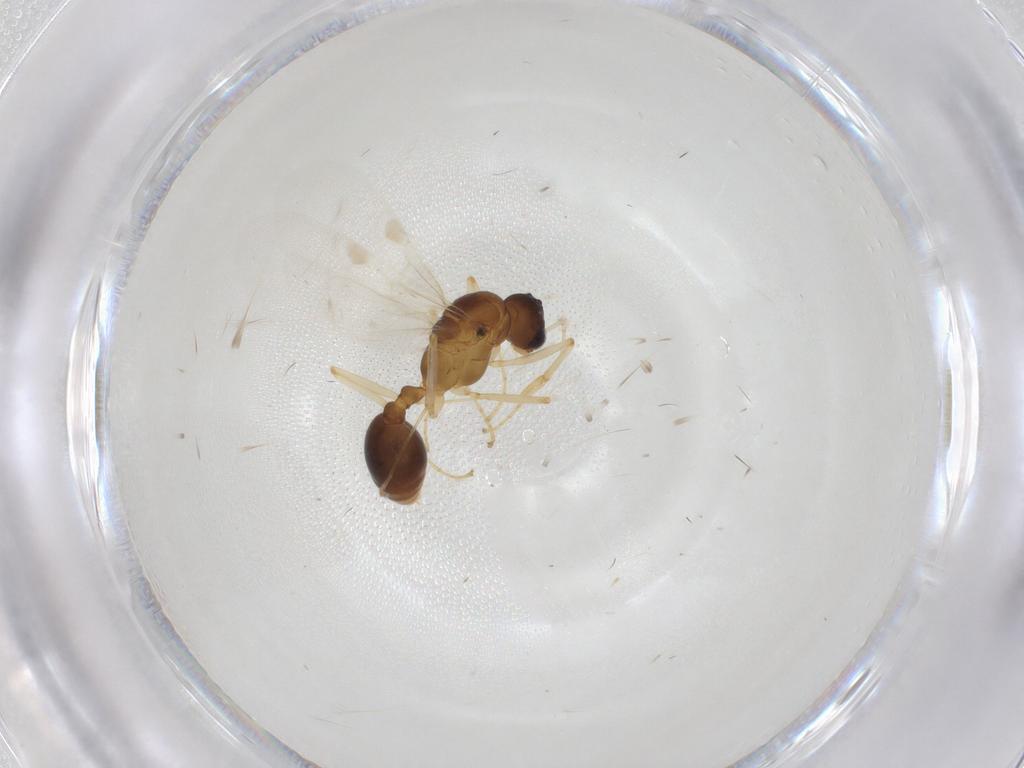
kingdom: Animalia
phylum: Arthropoda
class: Insecta
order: Hymenoptera
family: Formicidae
